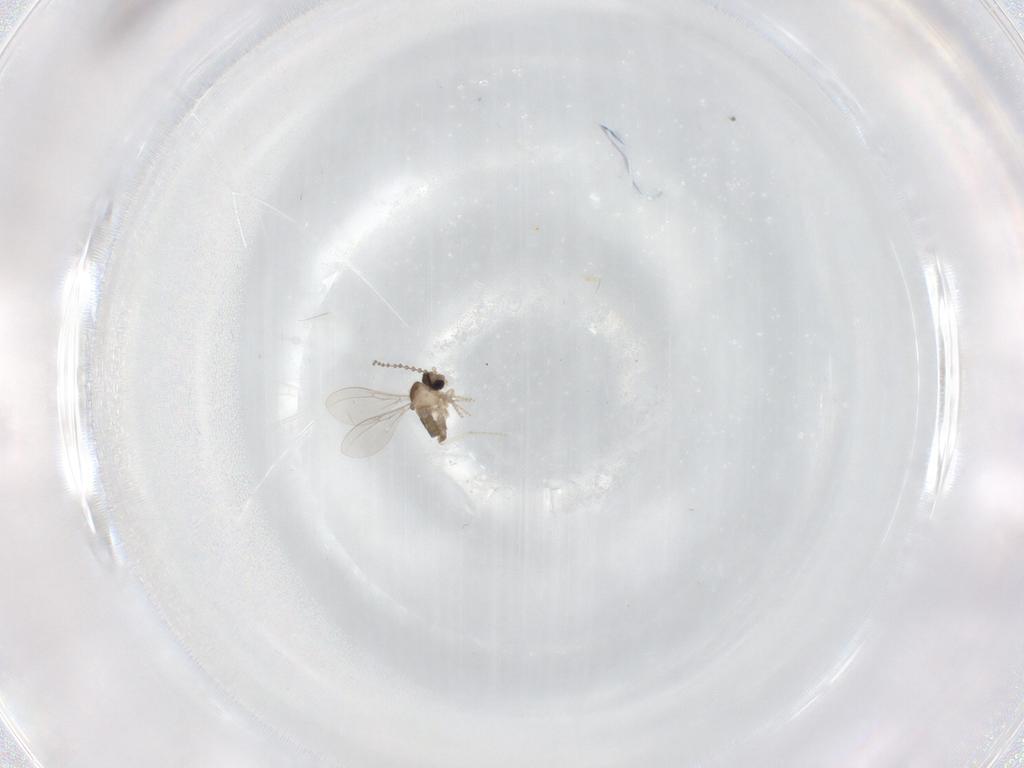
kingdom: Animalia
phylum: Arthropoda
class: Insecta
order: Diptera
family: Cecidomyiidae
